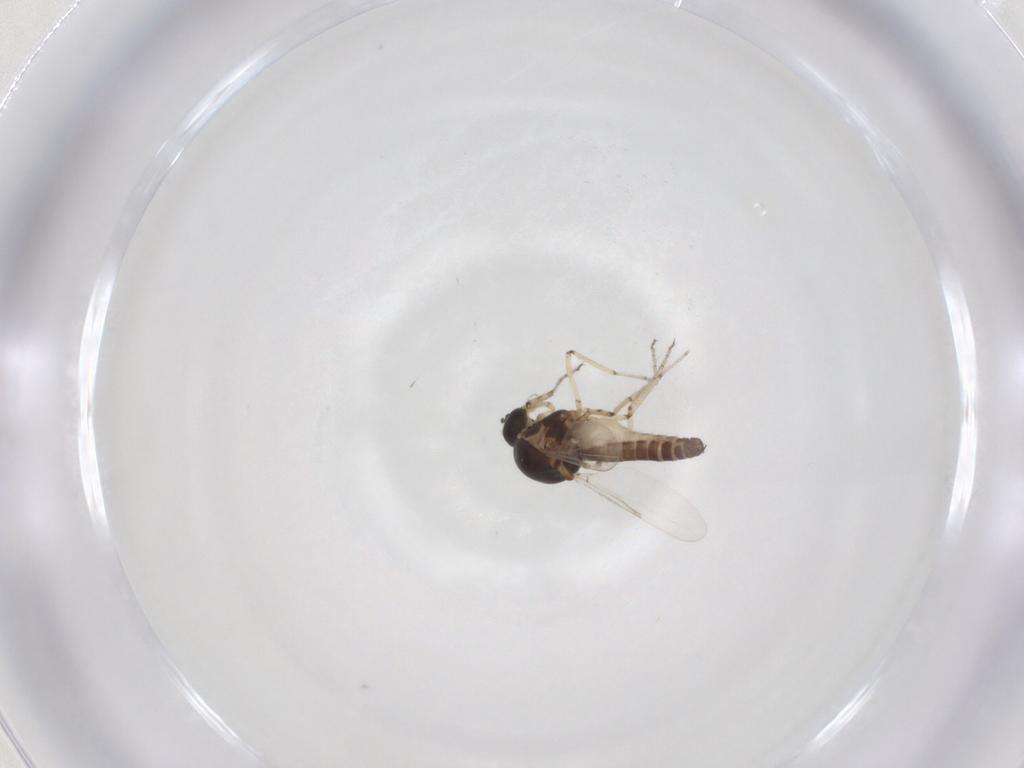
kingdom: Animalia
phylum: Arthropoda
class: Insecta
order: Diptera
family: Ceratopogonidae
